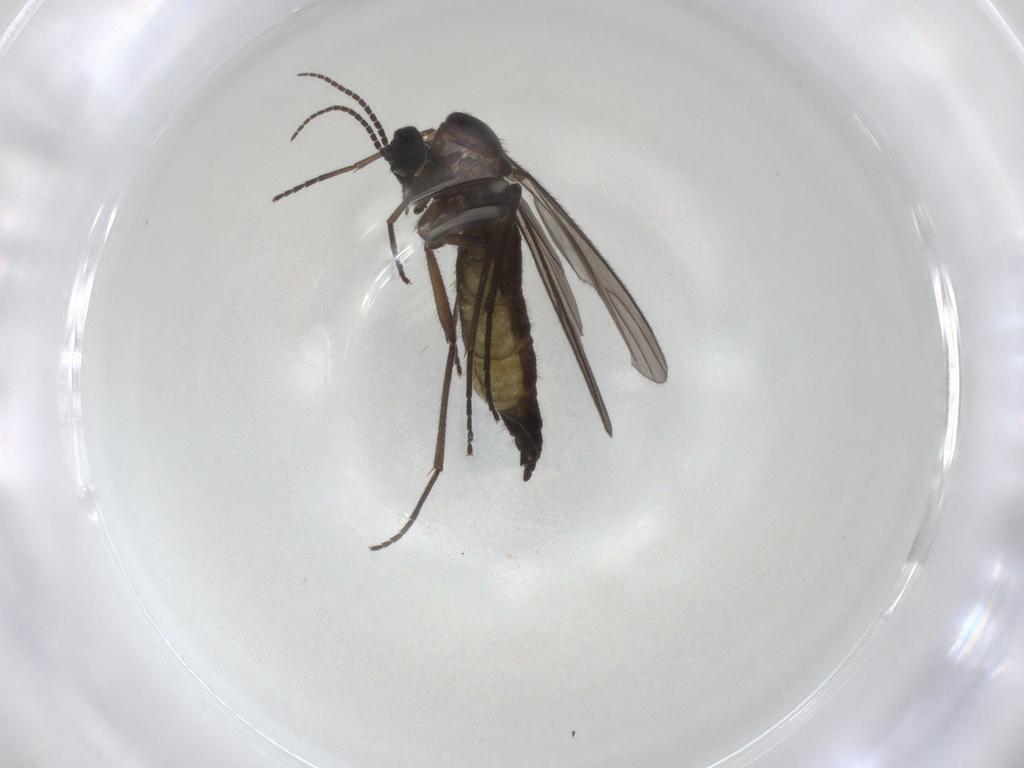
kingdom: Animalia
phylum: Arthropoda
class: Insecta
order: Diptera
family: Sciaridae
